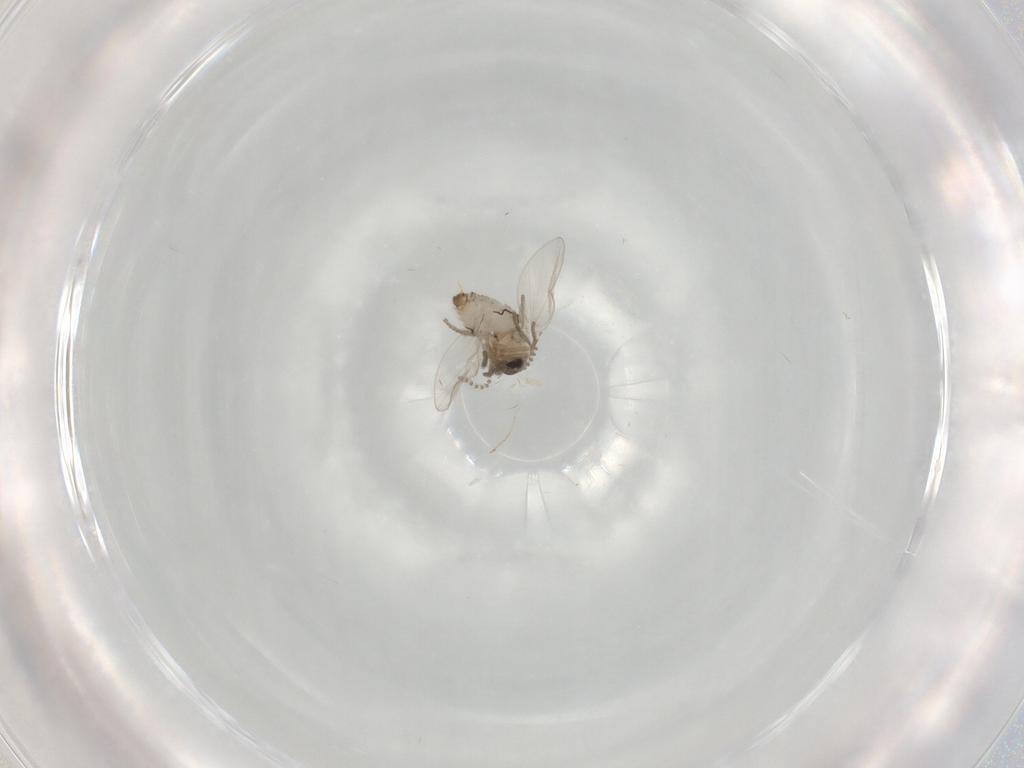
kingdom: Animalia
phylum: Arthropoda
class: Insecta
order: Diptera
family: Psychodidae
